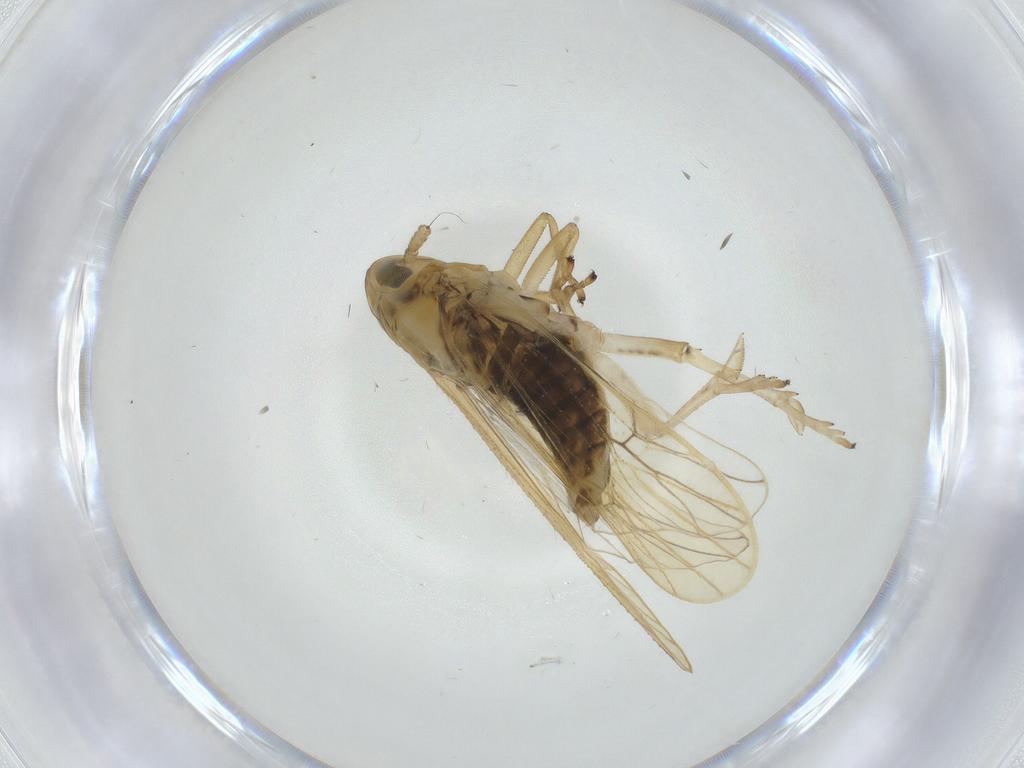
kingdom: Animalia
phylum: Arthropoda
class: Insecta
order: Hemiptera
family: Delphacidae
